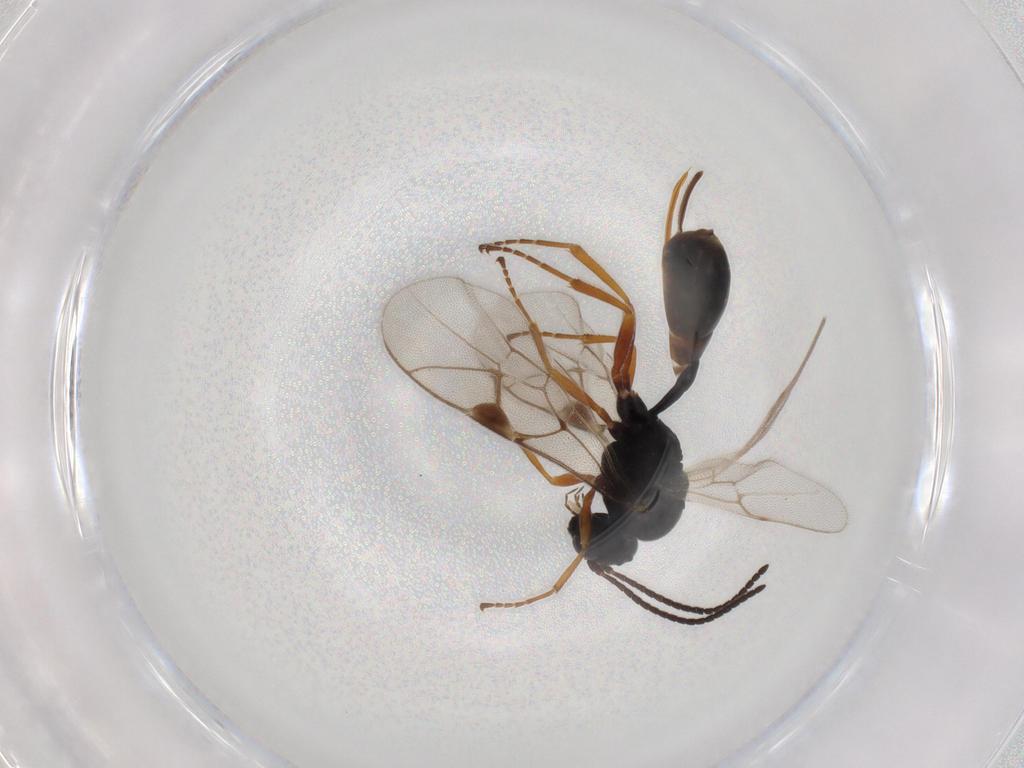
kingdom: Animalia
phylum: Arthropoda
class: Insecta
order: Hymenoptera
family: Ichneumonidae
